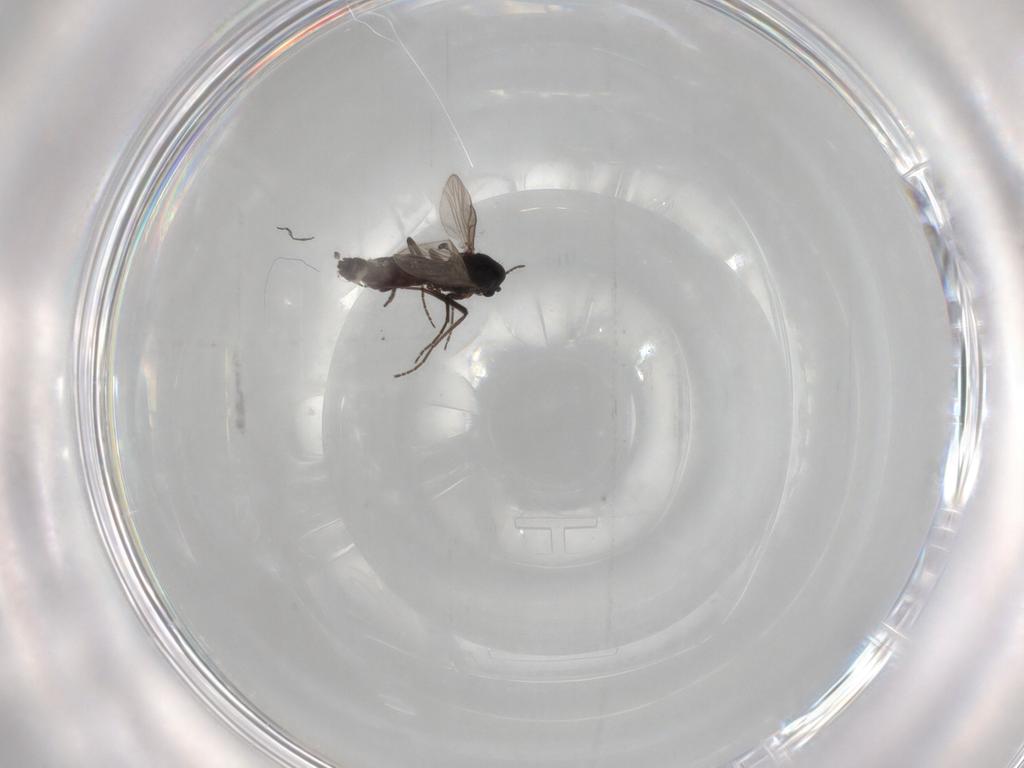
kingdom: Animalia
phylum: Arthropoda
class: Insecta
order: Diptera
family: Chironomidae
